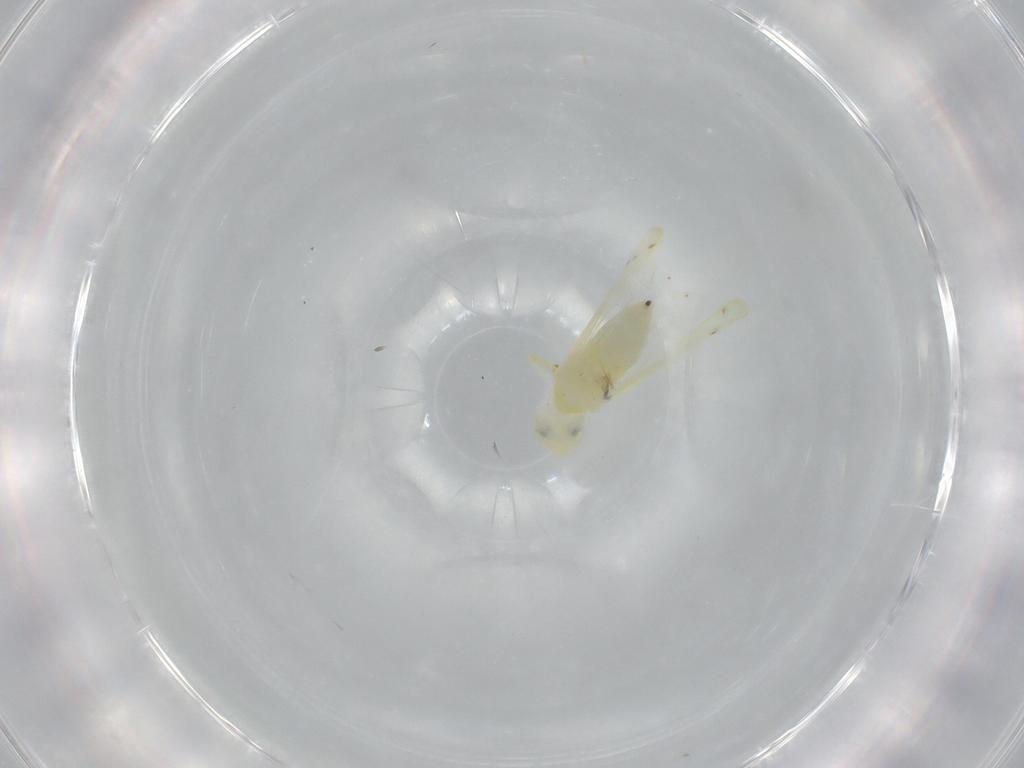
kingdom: Animalia
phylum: Arthropoda
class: Insecta
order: Hemiptera
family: Cicadellidae
